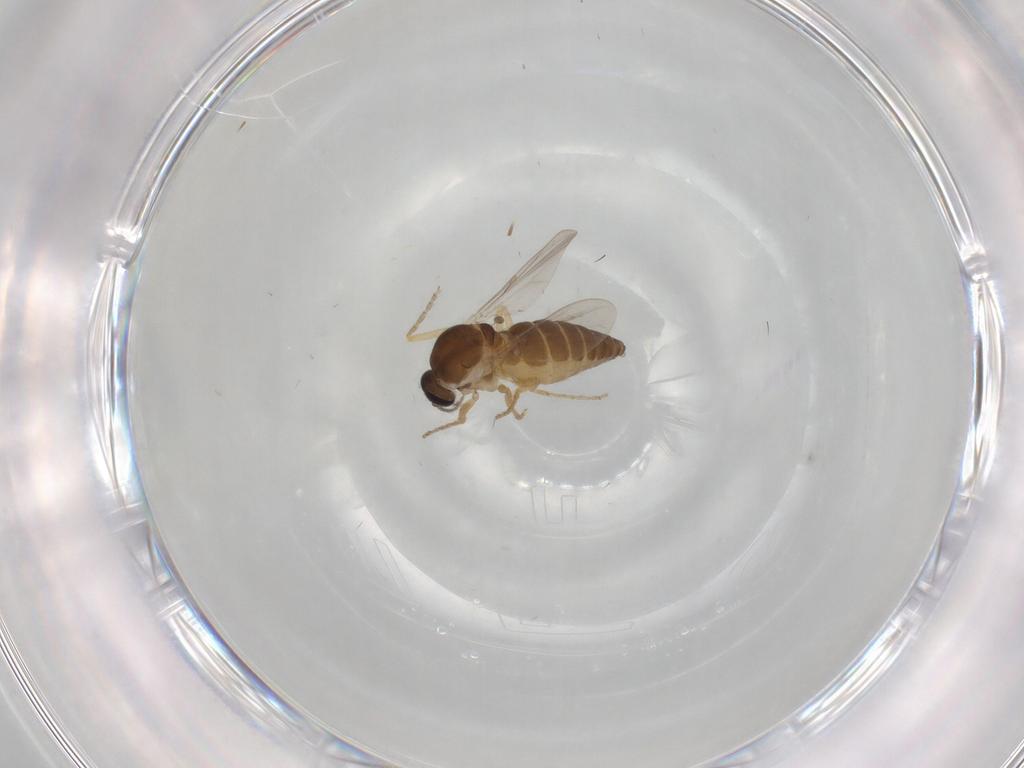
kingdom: Animalia
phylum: Arthropoda
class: Insecta
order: Diptera
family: Ceratopogonidae
